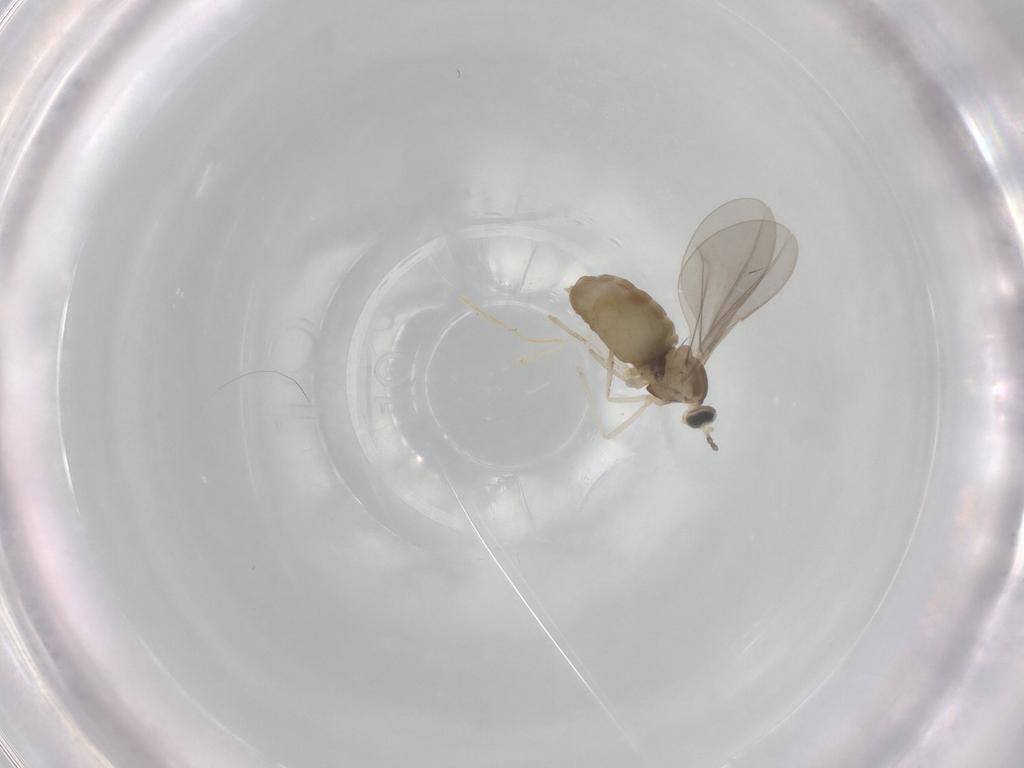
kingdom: Animalia
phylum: Arthropoda
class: Insecta
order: Diptera
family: Cecidomyiidae
